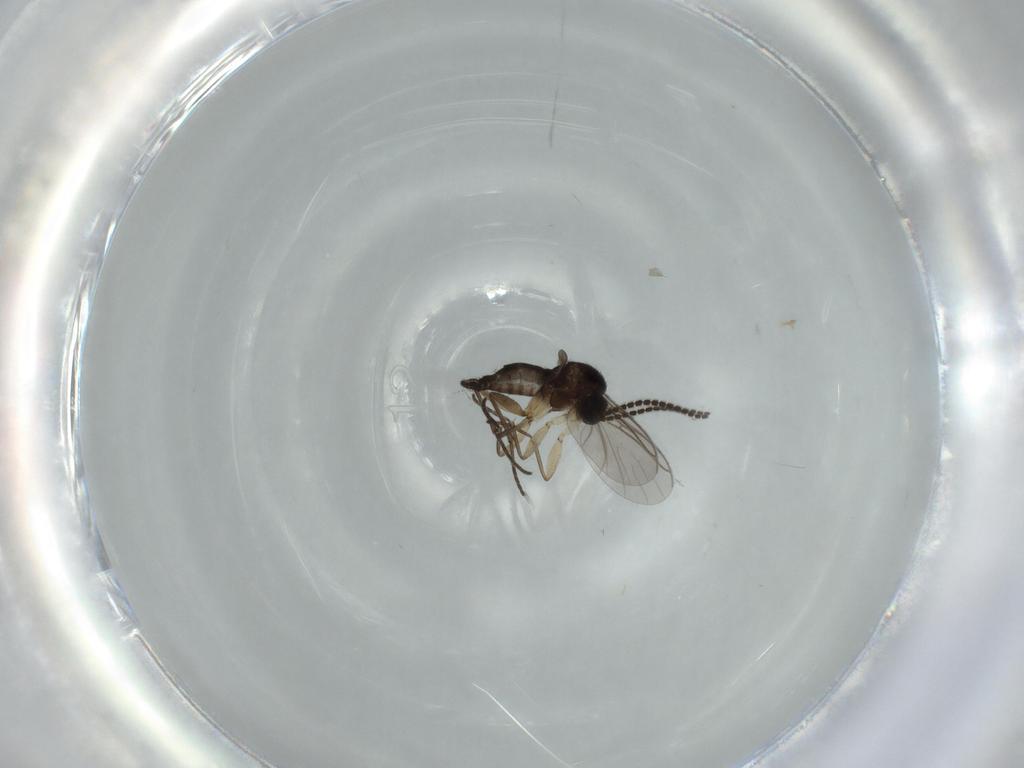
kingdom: Animalia
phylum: Arthropoda
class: Insecta
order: Diptera
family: Sciaridae
